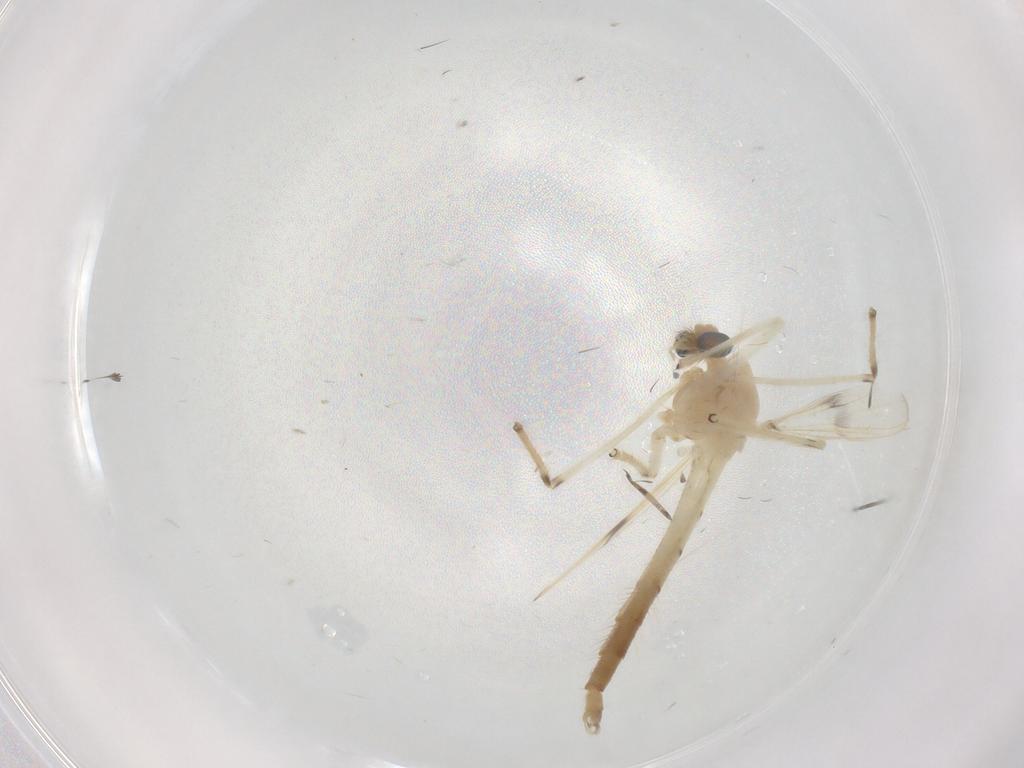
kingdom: Animalia
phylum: Arthropoda
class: Insecta
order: Diptera
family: Chironomidae
